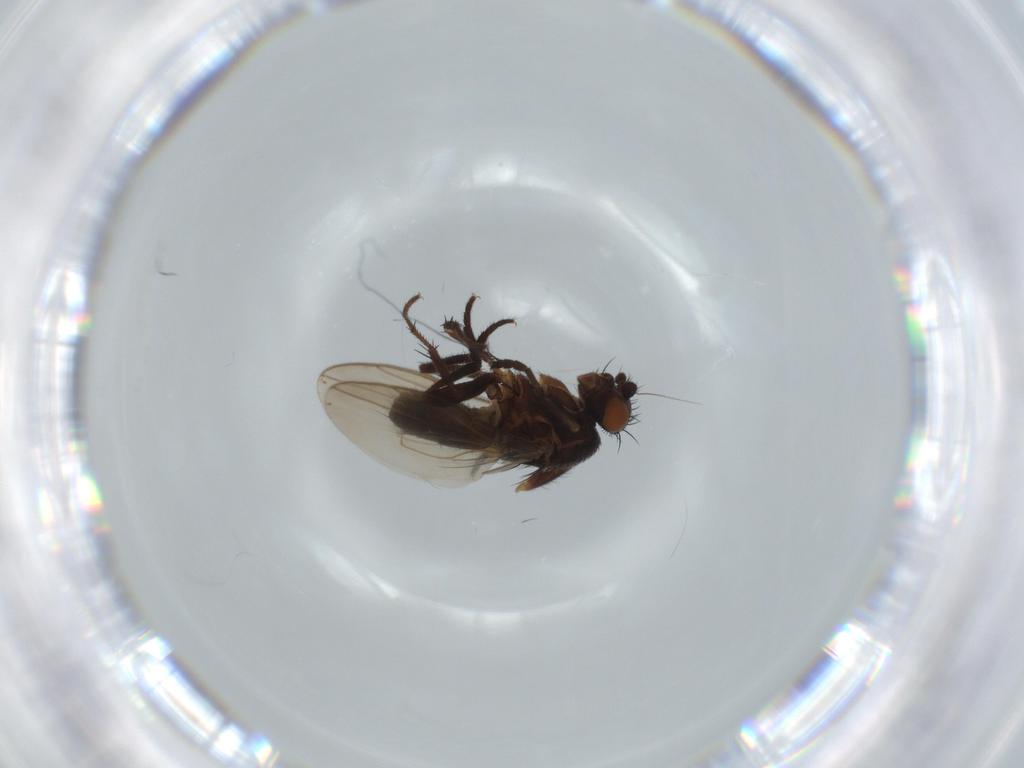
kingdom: Animalia
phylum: Arthropoda
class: Insecta
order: Diptera
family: Sphaeroceridae
